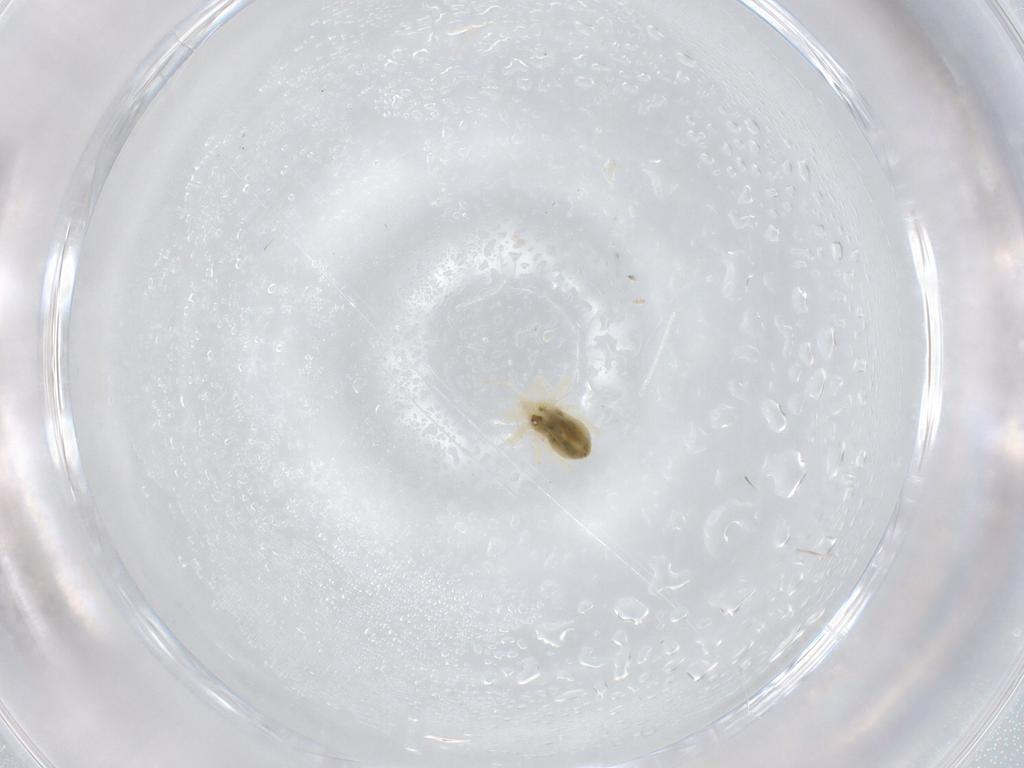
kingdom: Animalia
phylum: Arthropoda
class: Arachnida
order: Trombidiformes
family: Anystidae
